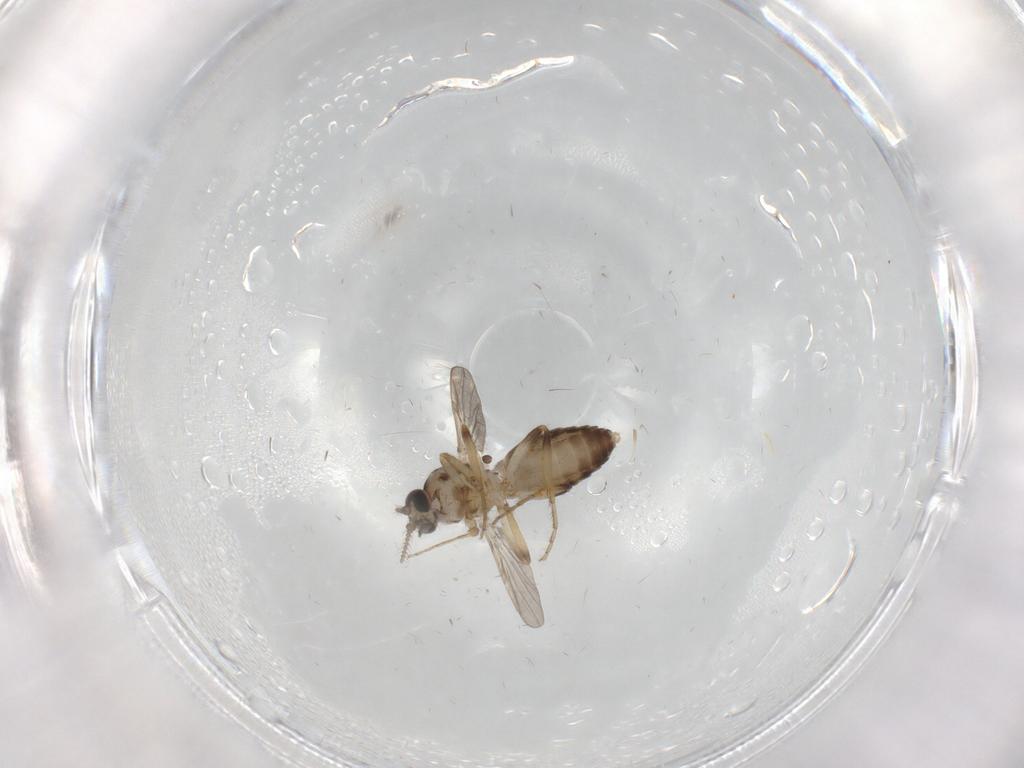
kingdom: Animalia
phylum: Arthropoda
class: Insecta
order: Diptera
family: Ceratopogonidae
